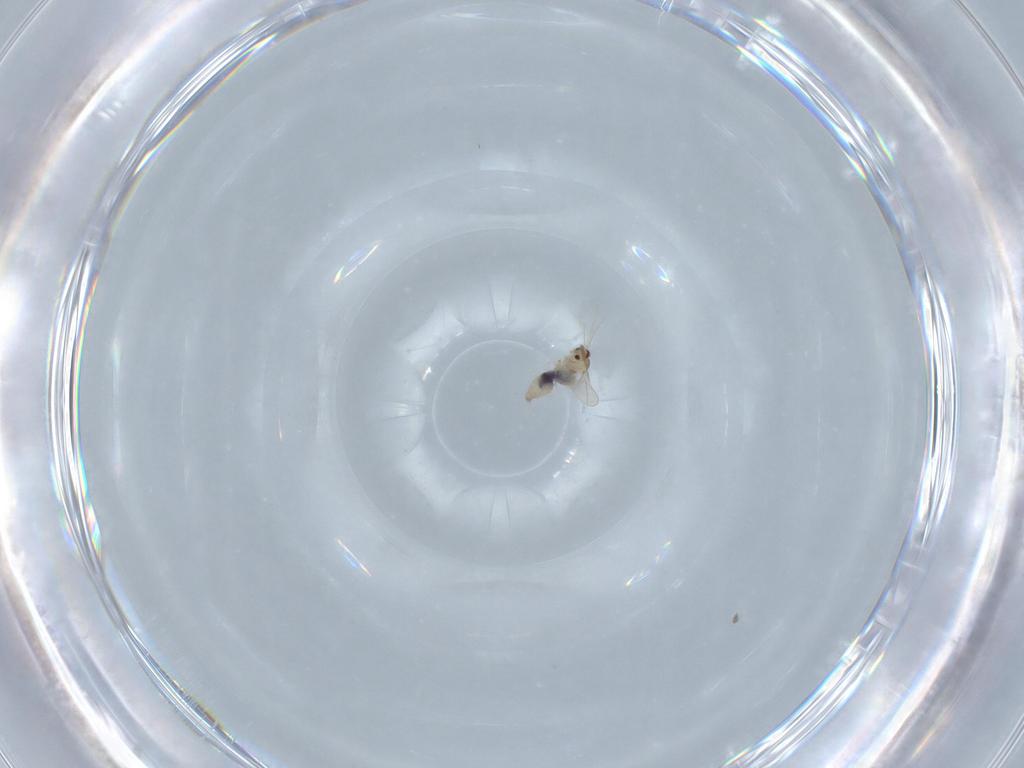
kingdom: Animalia
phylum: Arthropoda
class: Insecta
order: Diptera
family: Cecidomyiidae
